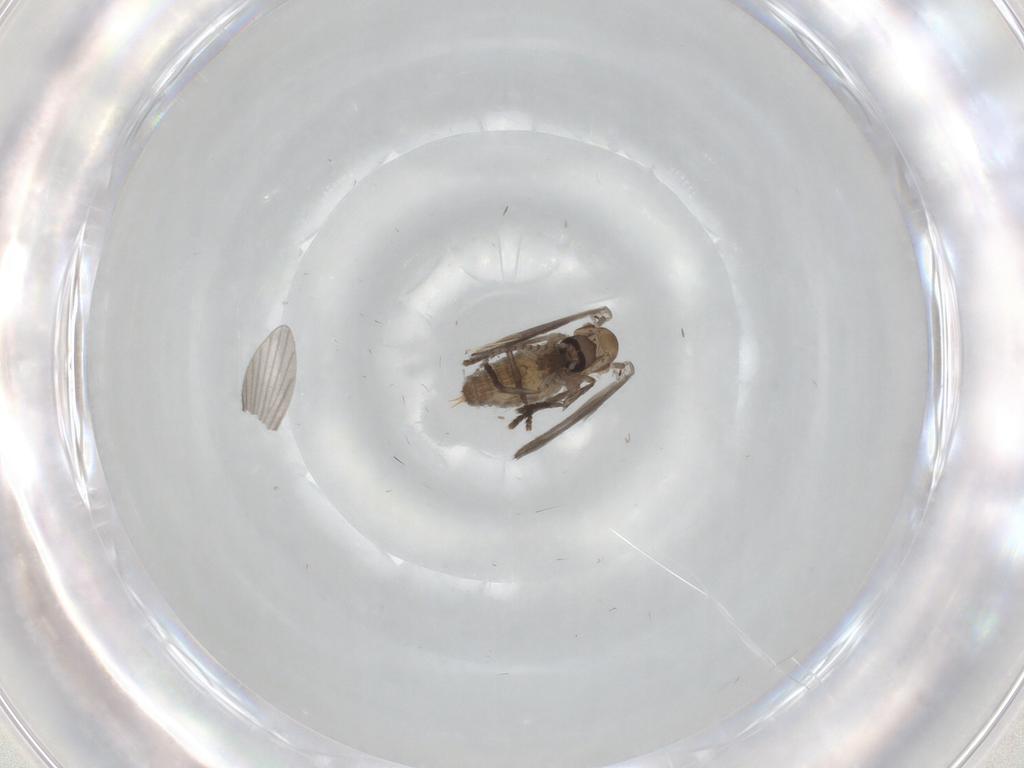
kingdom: Animalia
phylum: Arthropoda
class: Insecta
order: Diptera
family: Psychodidae
